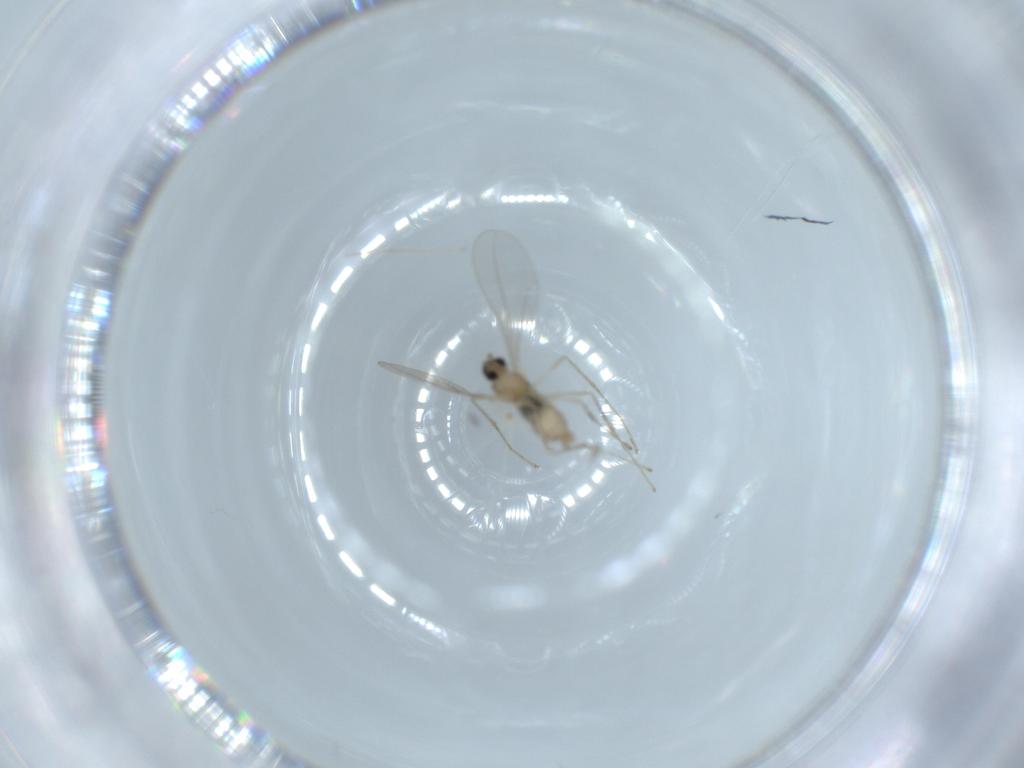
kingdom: Animalia
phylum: Arthropoda
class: Insecta
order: Diptera
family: Cecidomyiidae
